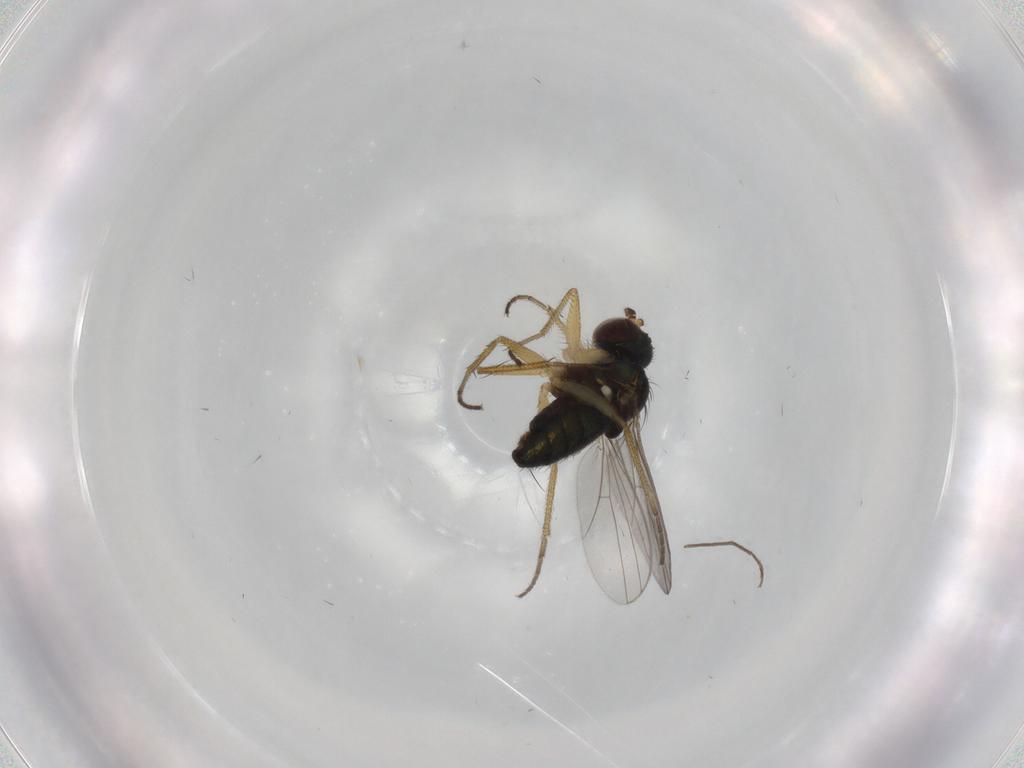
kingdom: Animalia
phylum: Arthropoda
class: Insecta
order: Diptera
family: Chironomidae
